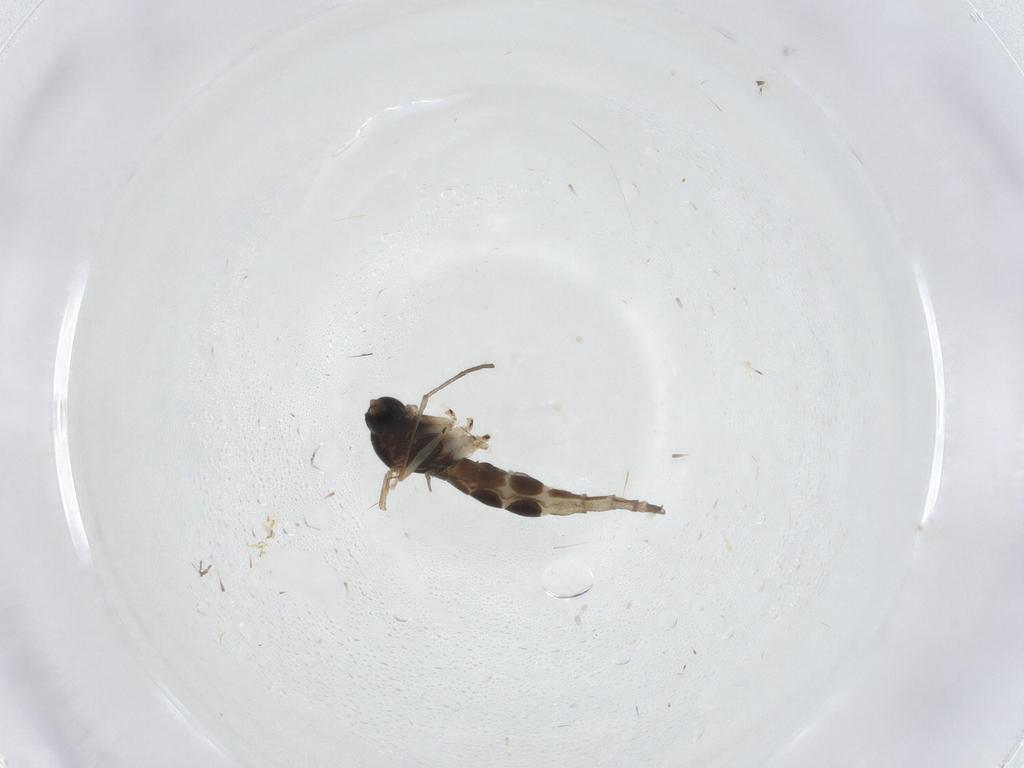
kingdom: Animalia
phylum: Arthropoda
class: Insecta
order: Diptera
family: Sciaridae
